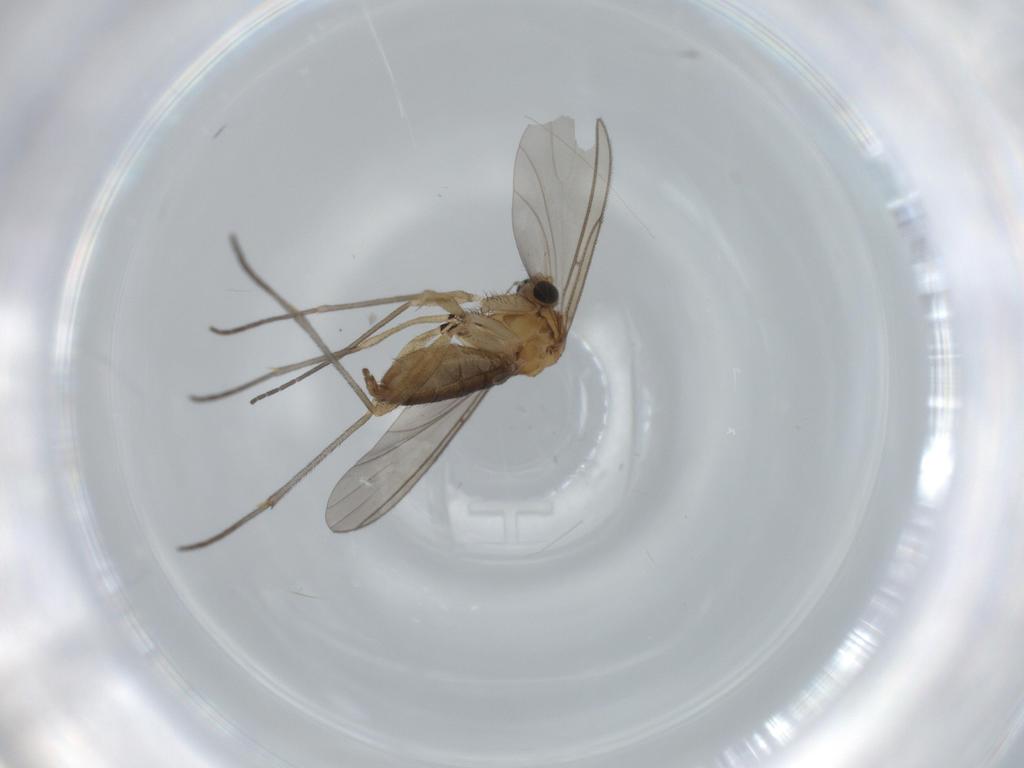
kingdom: Animalia
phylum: Arthropoda
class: Insecta
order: Diptera
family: Sciaridae
